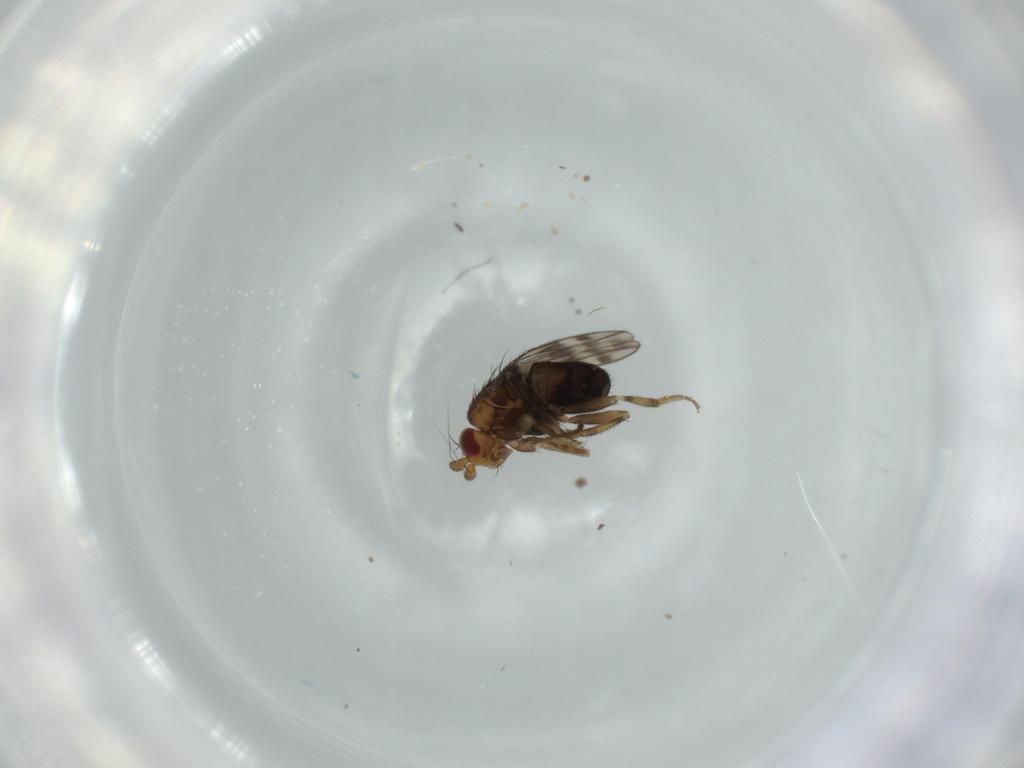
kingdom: Animalia
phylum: Arthropoda
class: Insecta
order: Diptera
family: Sphaeroceridae
